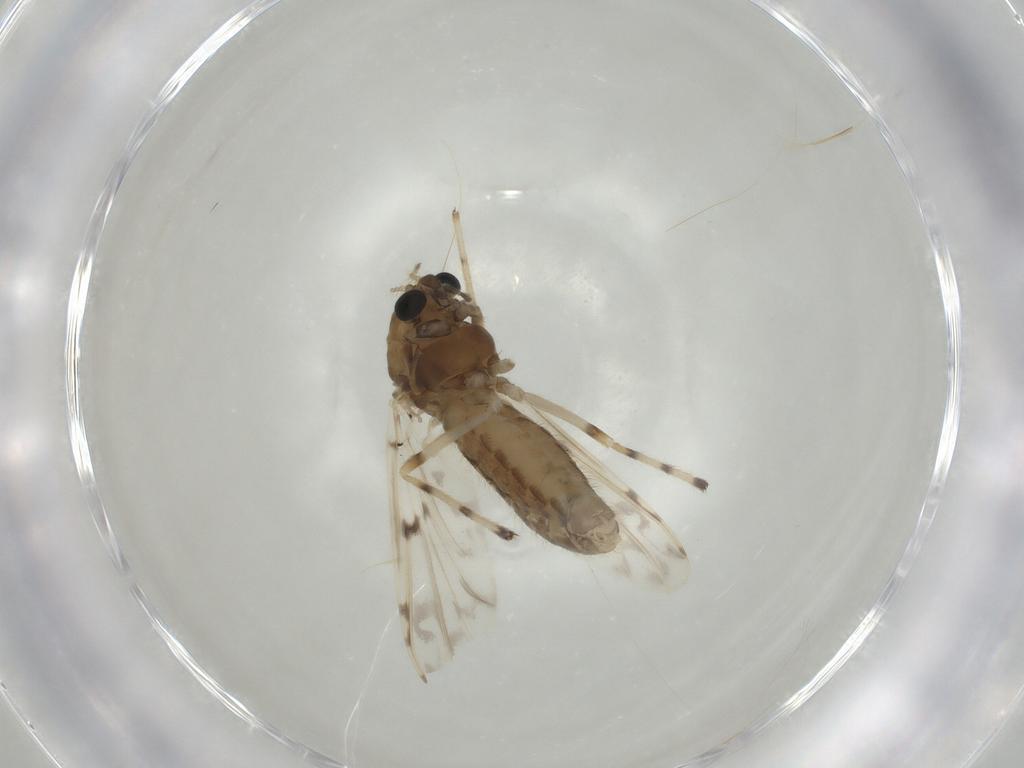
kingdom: Animalia
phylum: Arthropoda
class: Insecta
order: Diptera
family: Chironomidae
